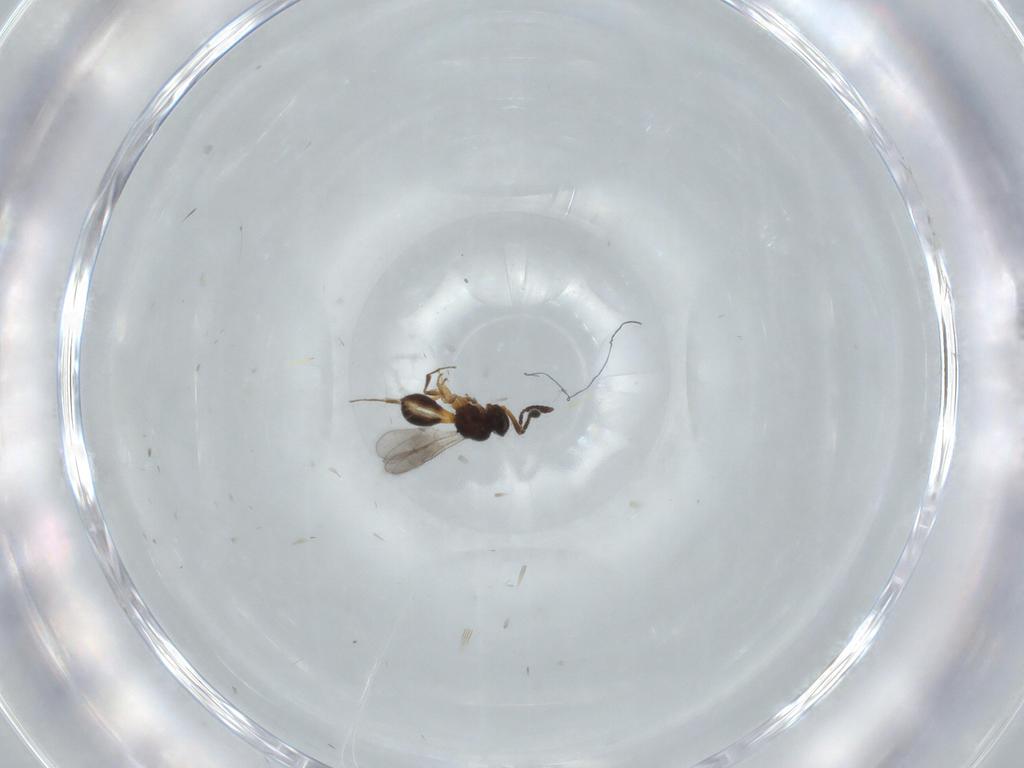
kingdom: Animalia
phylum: Arthropoda
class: Insecta
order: Hymenoptera
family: Scelionidae
